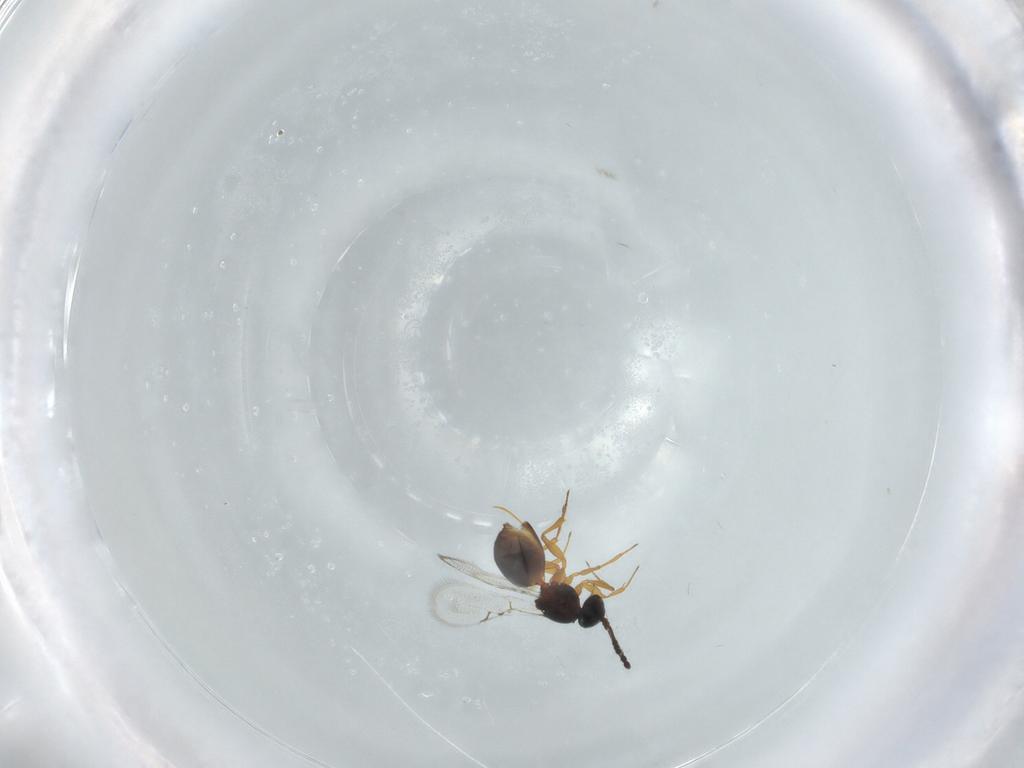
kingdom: Animalia
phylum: Arthropoda
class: Insecta
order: Hymenoptera
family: Figitidae
